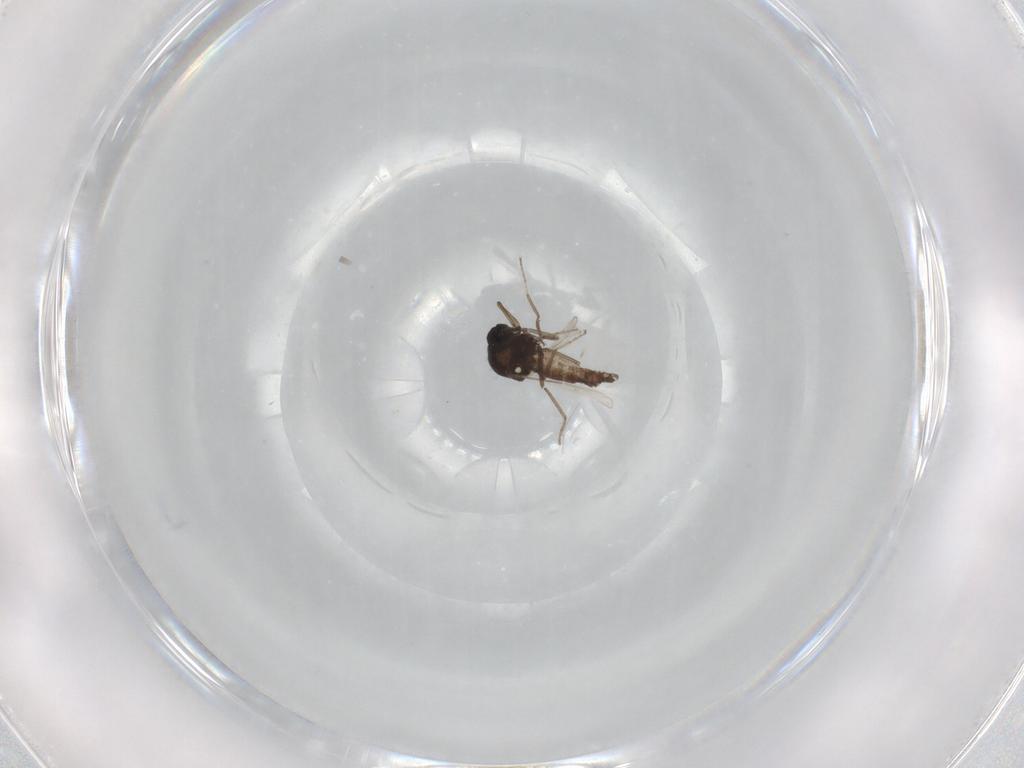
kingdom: Animalia
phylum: Arthropoda
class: Insecta
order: Diptera
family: Ceratopogonidae
